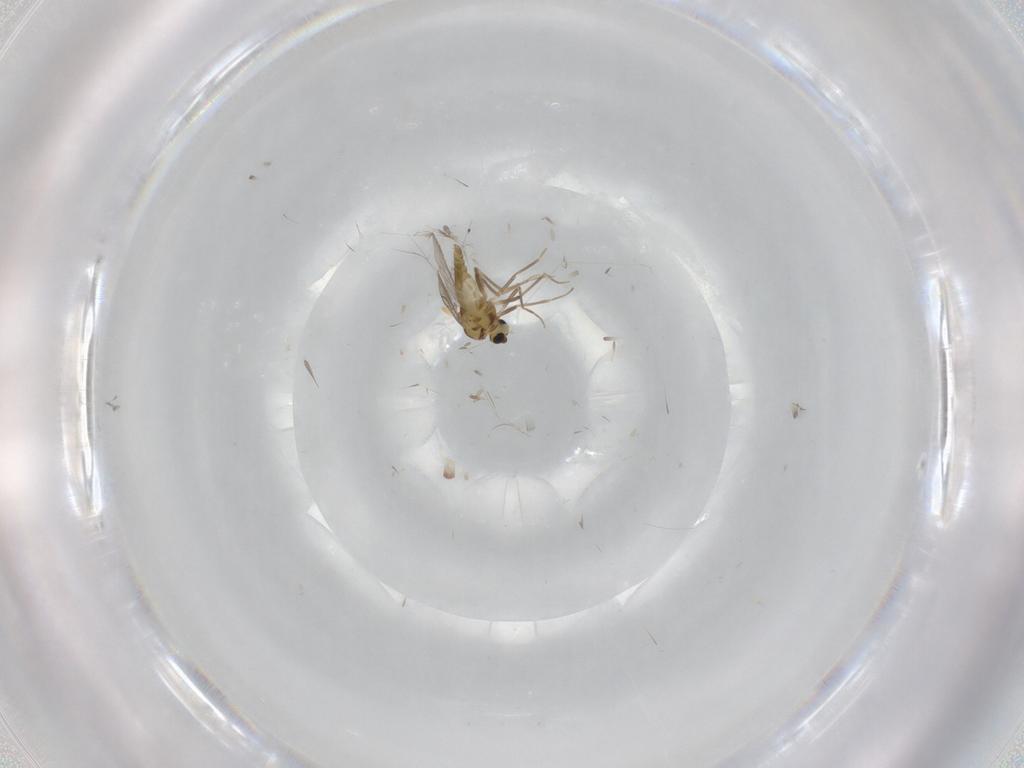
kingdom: Animalia
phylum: Arthropoda
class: Insecta
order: Diptera
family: Chironomidae
